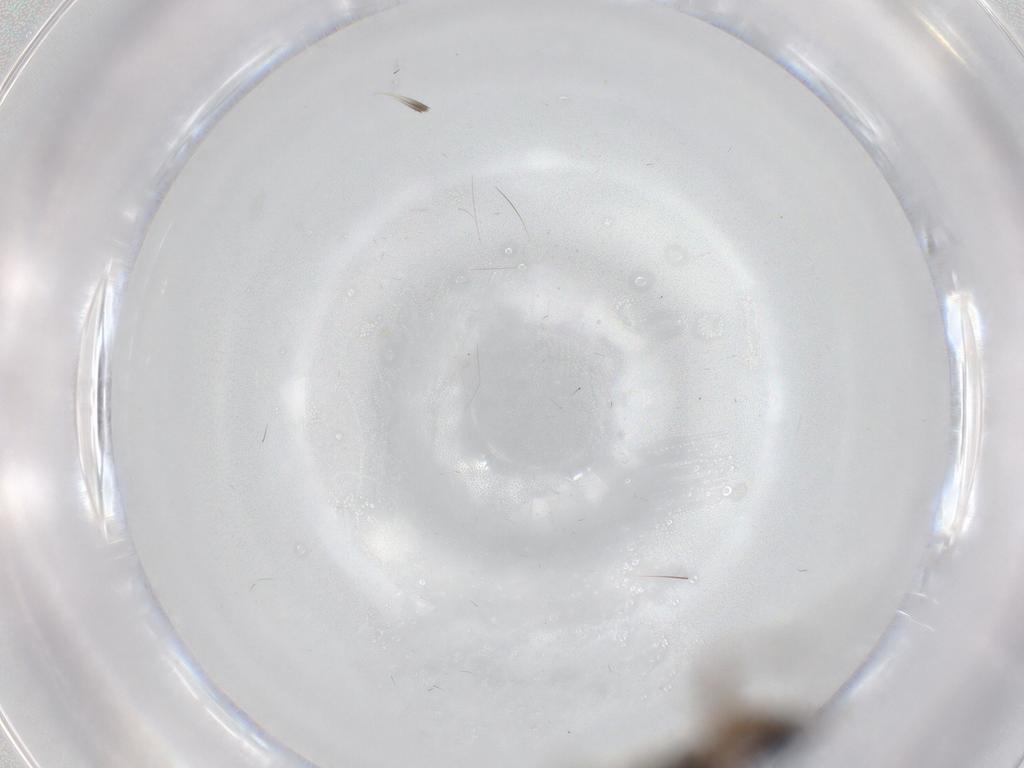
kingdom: Animalia
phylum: Arthropoda
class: Insecta
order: Hymenoptera
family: Diapriidae
